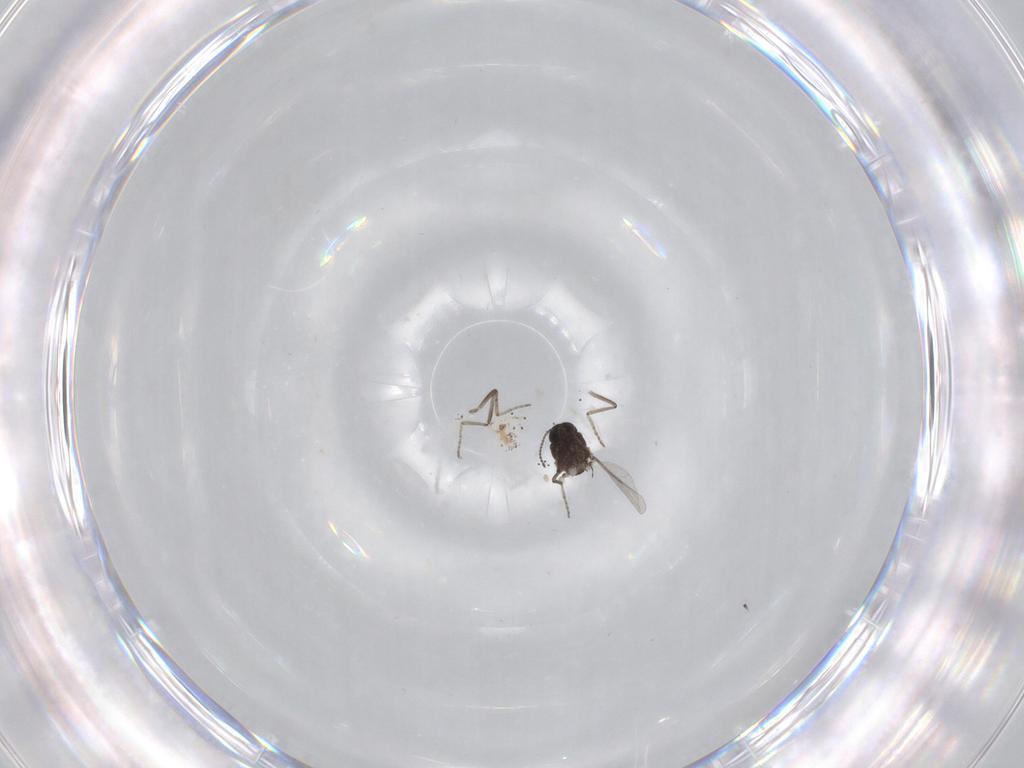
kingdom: Animalia
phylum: Arthropoda
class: Insecta
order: Diptera
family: Ceratopogonidae
